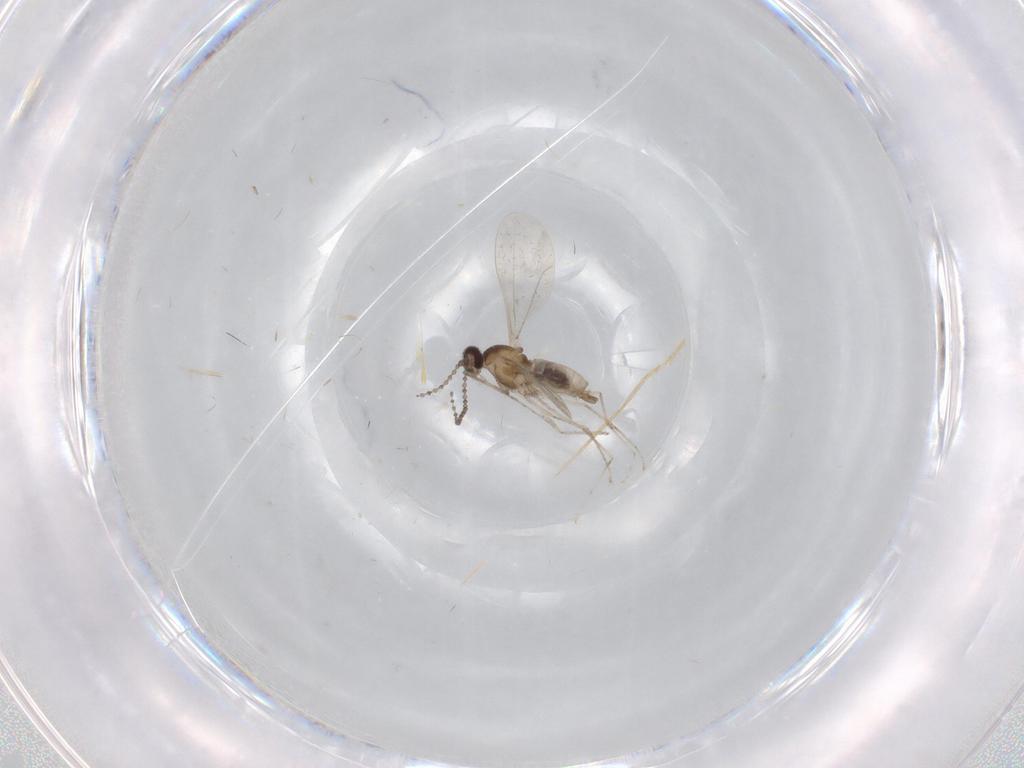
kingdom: Animalia
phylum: Arthropoda
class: Insecta
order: Diptera
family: Cecidomyiidae
